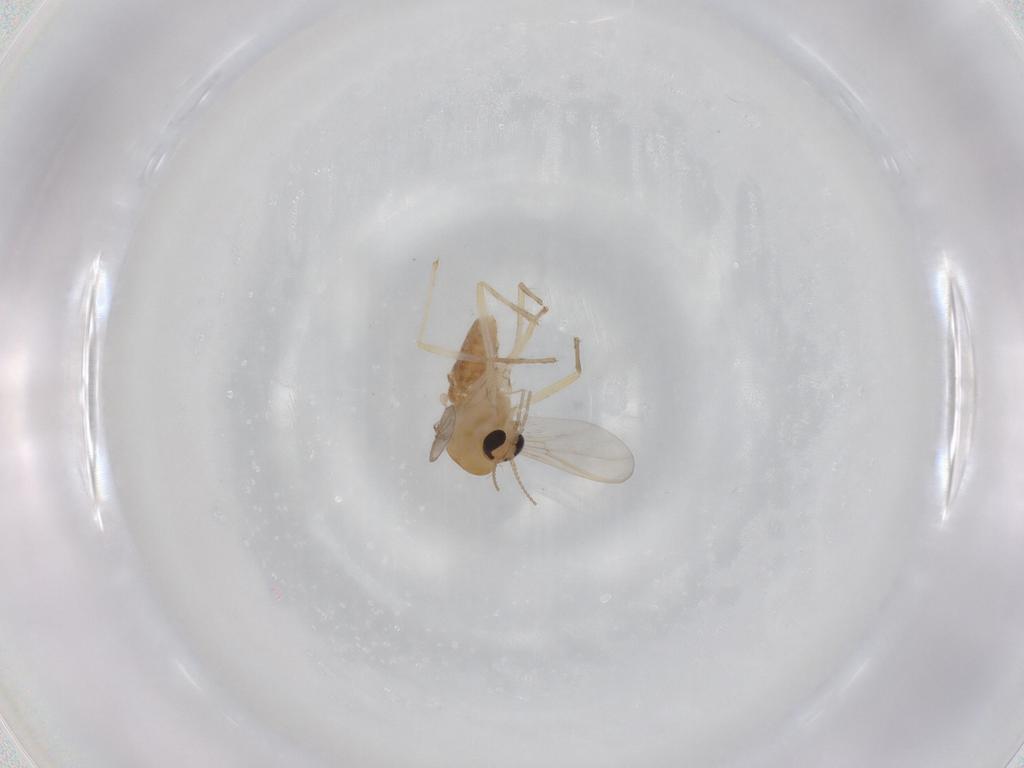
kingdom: Animalia
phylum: Arthropoda
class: Insecta
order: Diptera
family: Chironomidae
